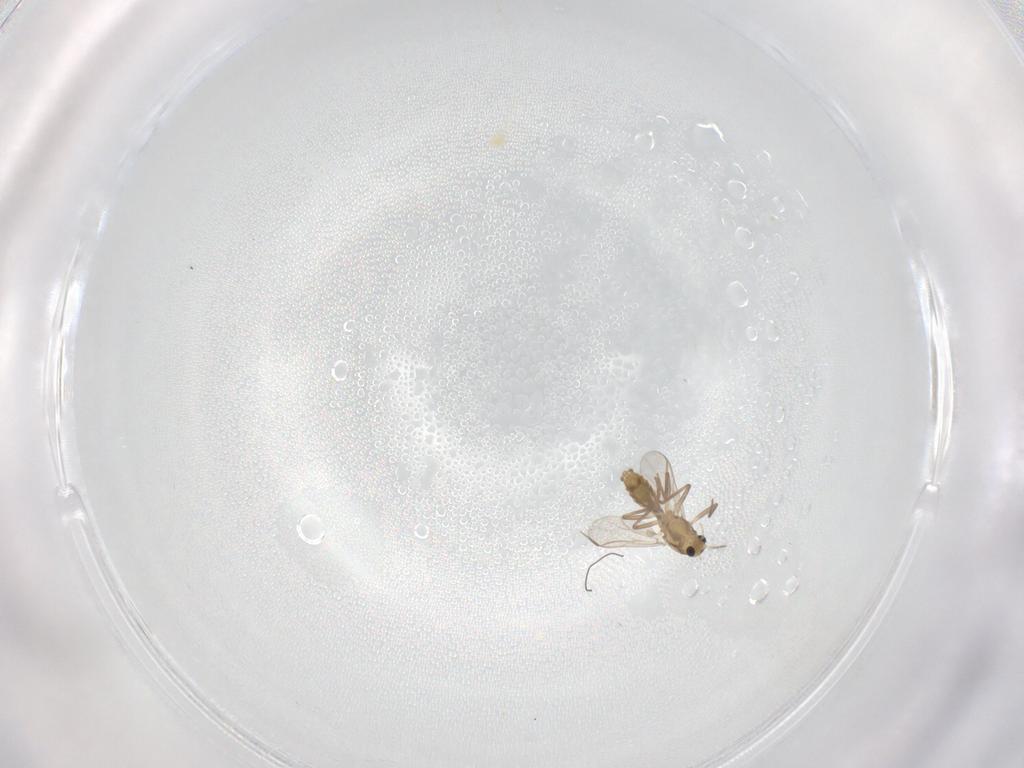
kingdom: Animalia
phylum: Arthropoda
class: Insecta
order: Diptera
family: Chironomidae
